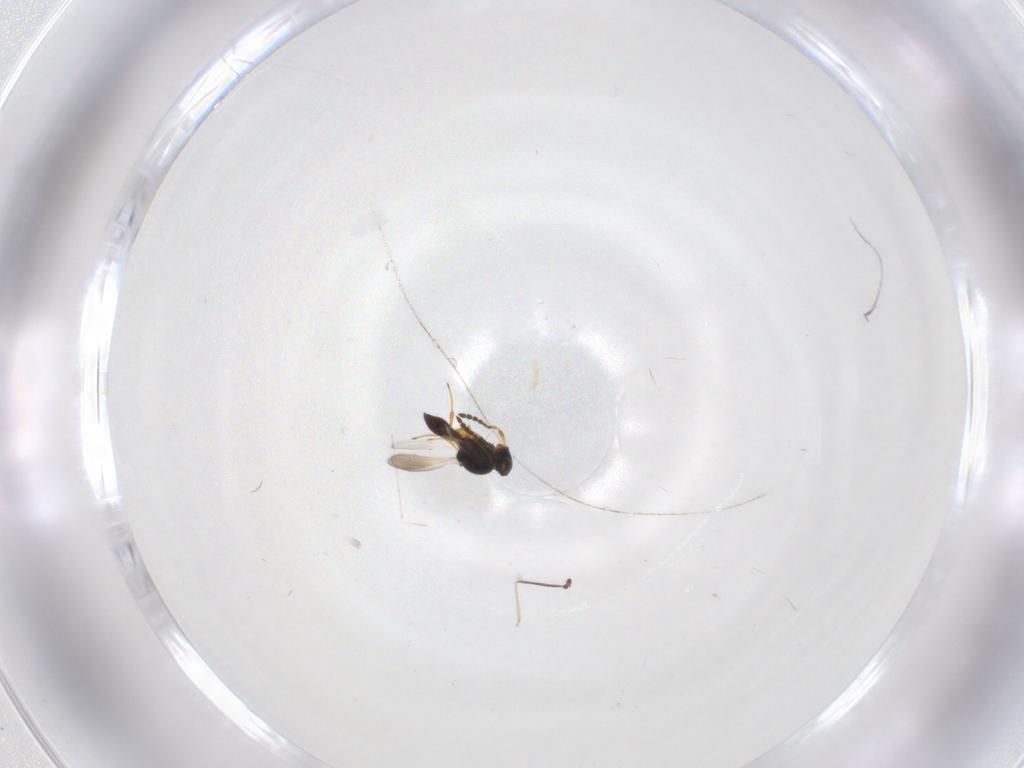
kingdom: Animalia
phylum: Arthropoda
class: Insecta
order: Hymenoptera
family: Platygastridae
